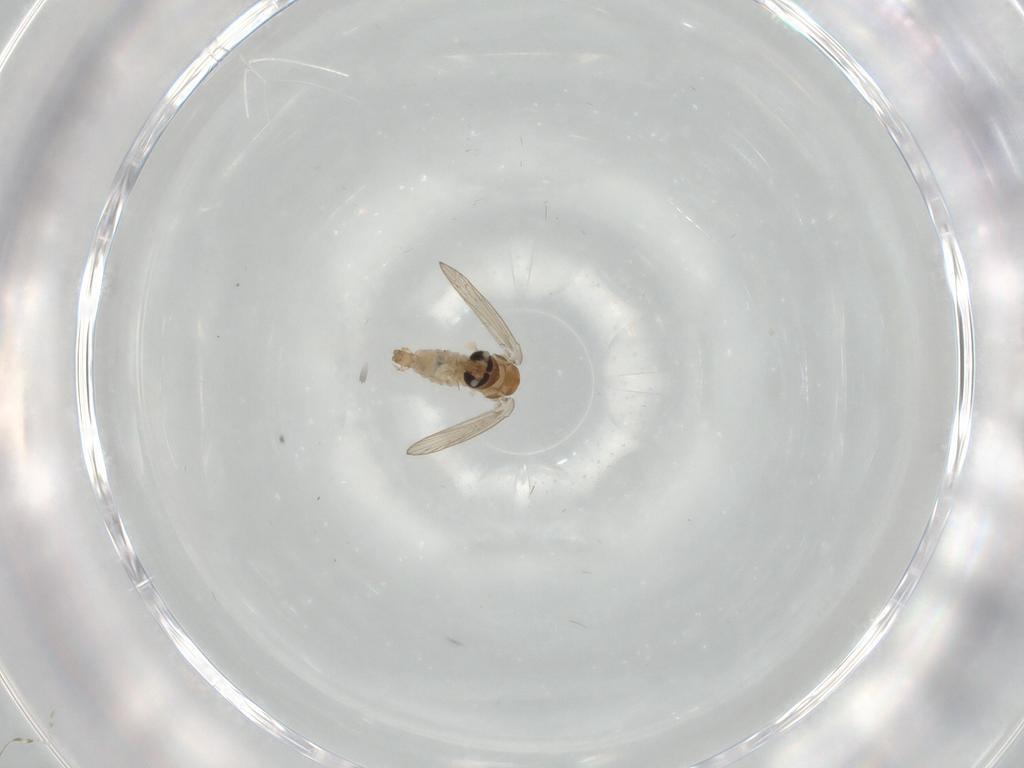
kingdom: Animalia
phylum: Arthropoda
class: Insecta
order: Diptera
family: Psychodidae
